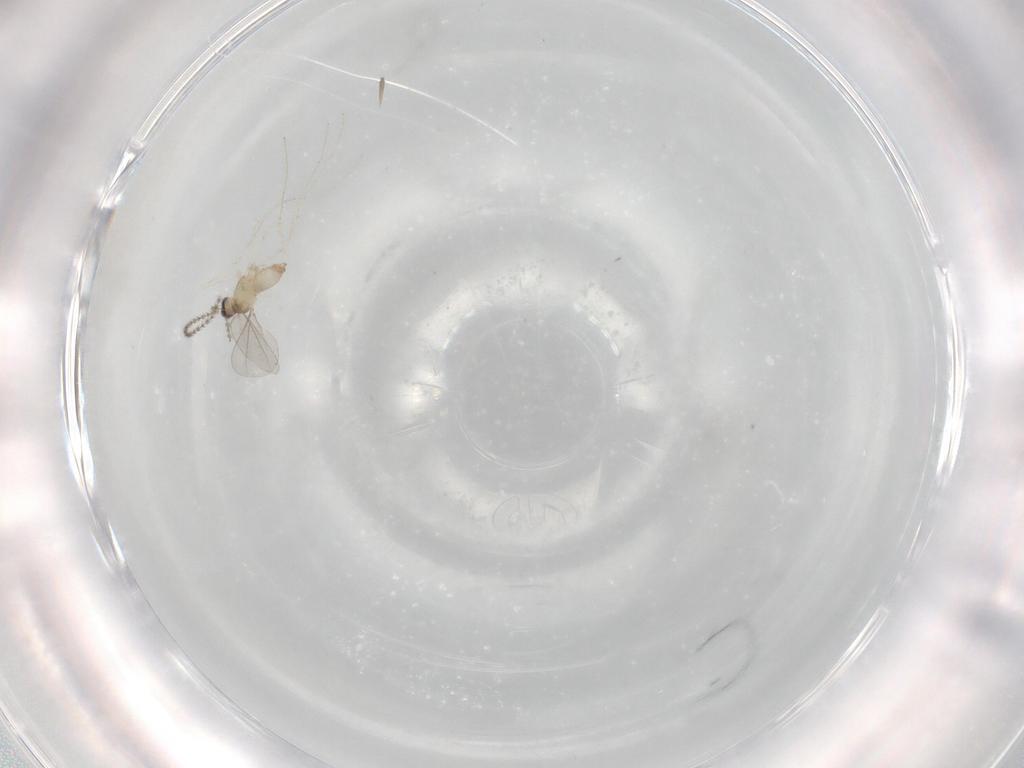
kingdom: Animalia
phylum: Arthropoda
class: Insecta
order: Diptera
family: Cecidomyiidae
